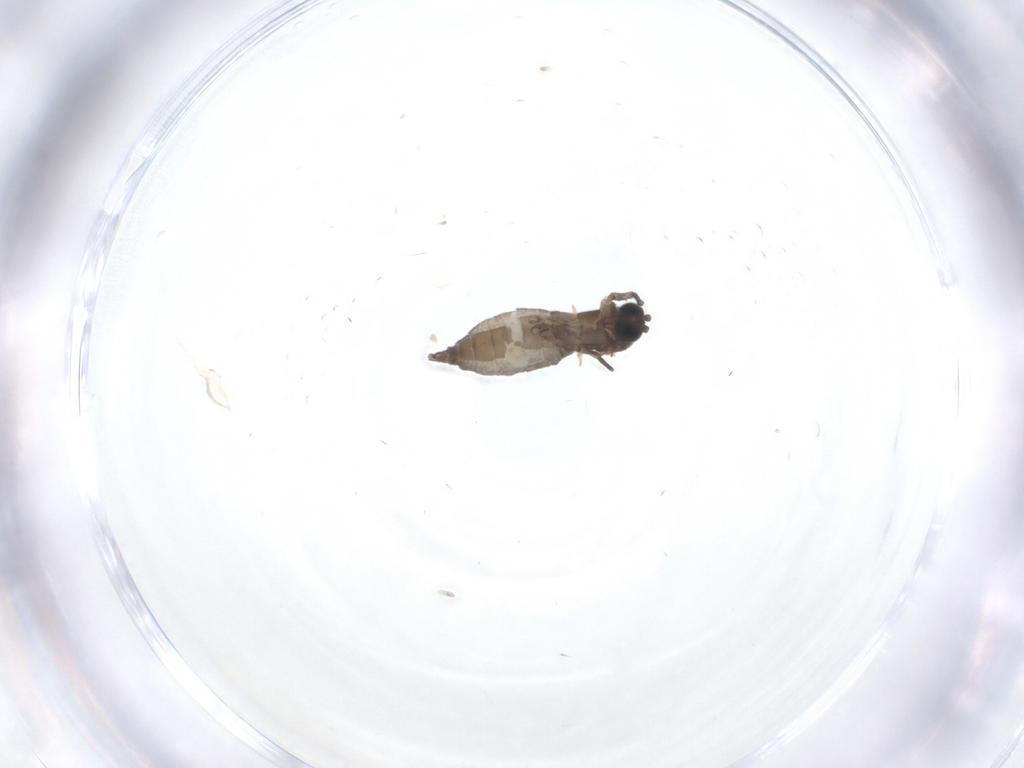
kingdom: Animalia
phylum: Arthropoda
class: Insecta
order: Diptera
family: Sciaridae
